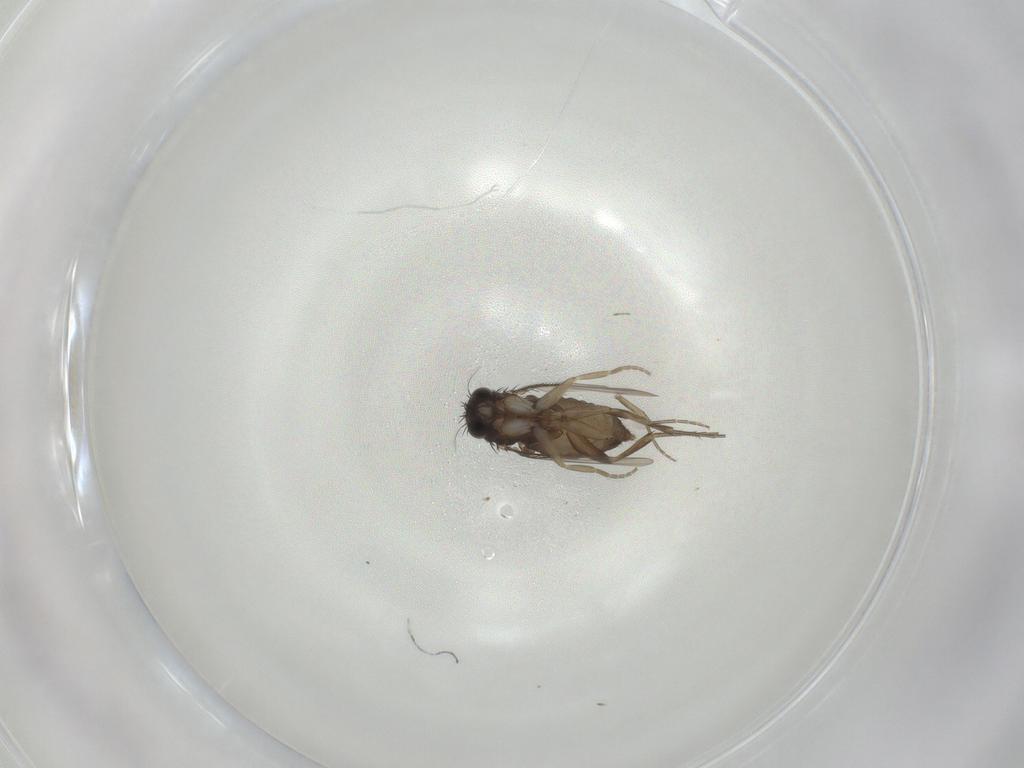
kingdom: Animalia
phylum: Arthropoda
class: Insecta
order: Diptera
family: Chironomidae
